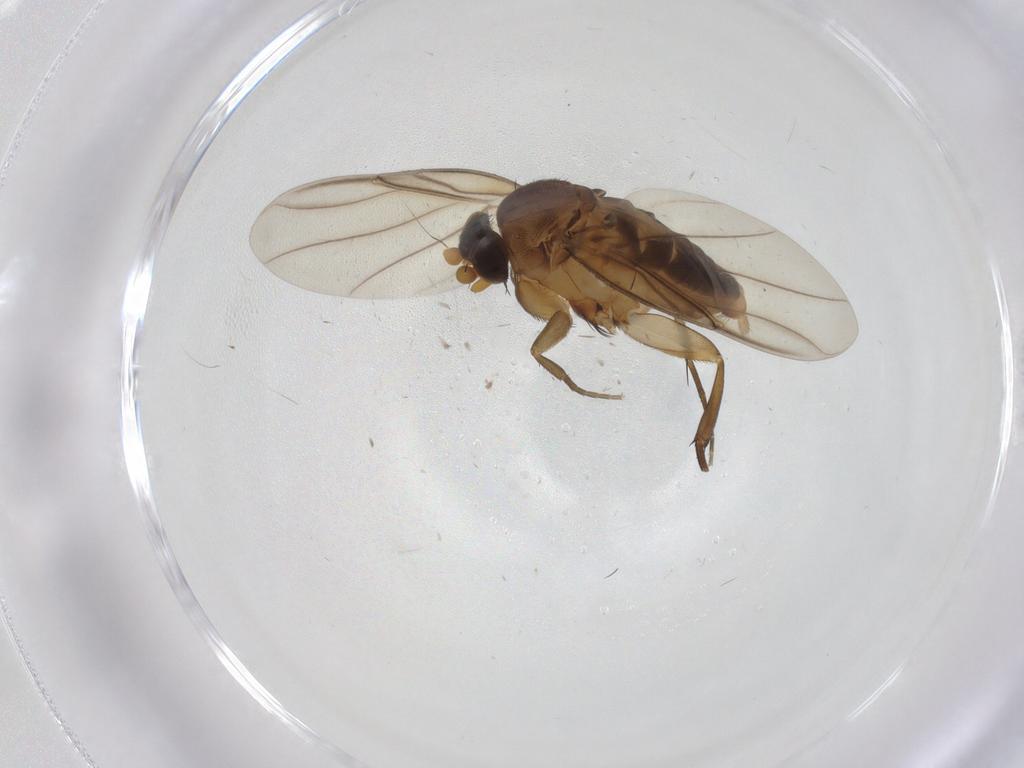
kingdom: Animalia
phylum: Arthropoda
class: Insecta
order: Diptera
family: Phoridae
